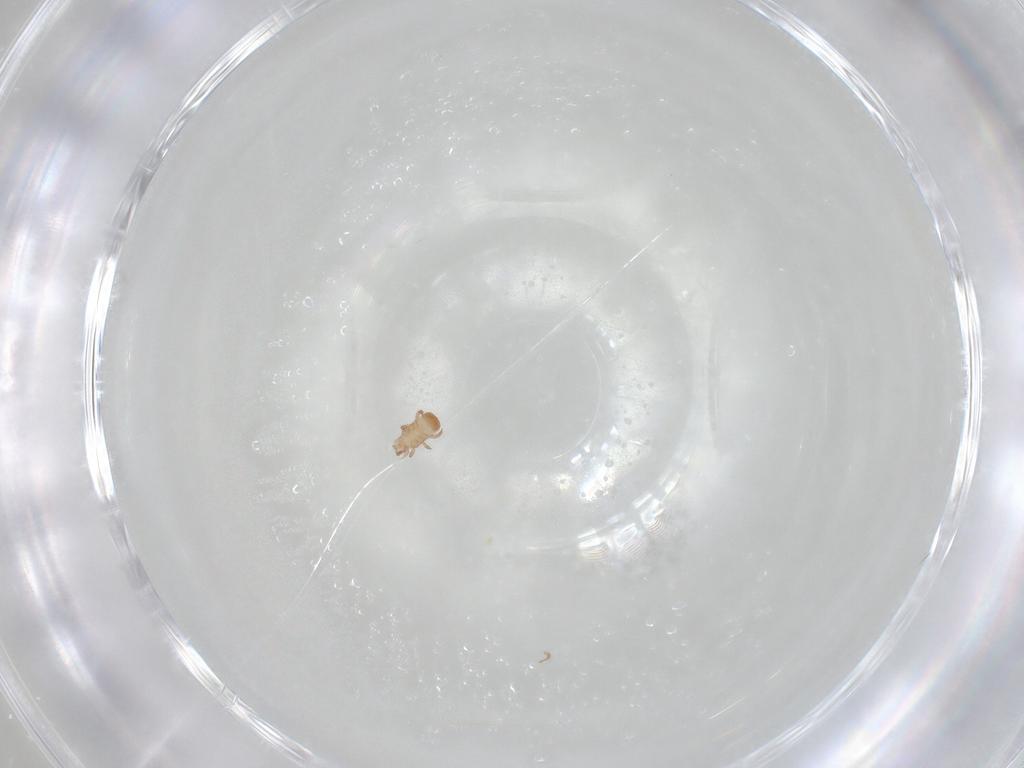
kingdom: Animalia
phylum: Arthropoda
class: Arachnida
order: Mesostigmata
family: Ascidae
